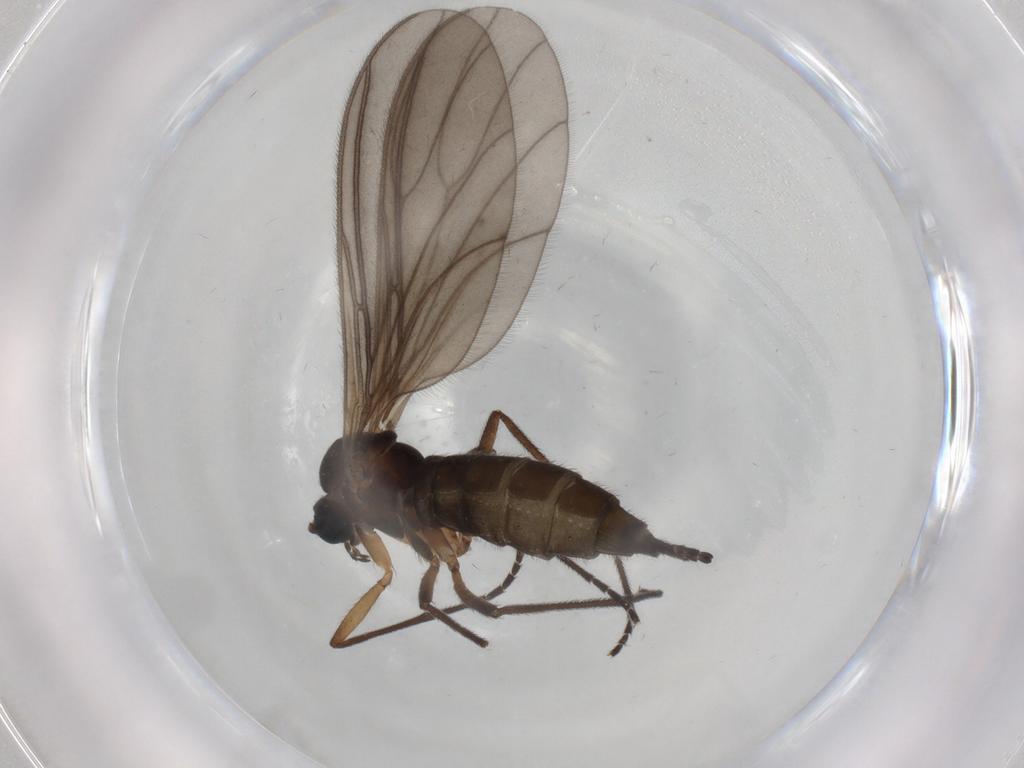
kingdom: Animalia
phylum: Arthropoda
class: Insecta
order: Diptera
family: Sciaridae
